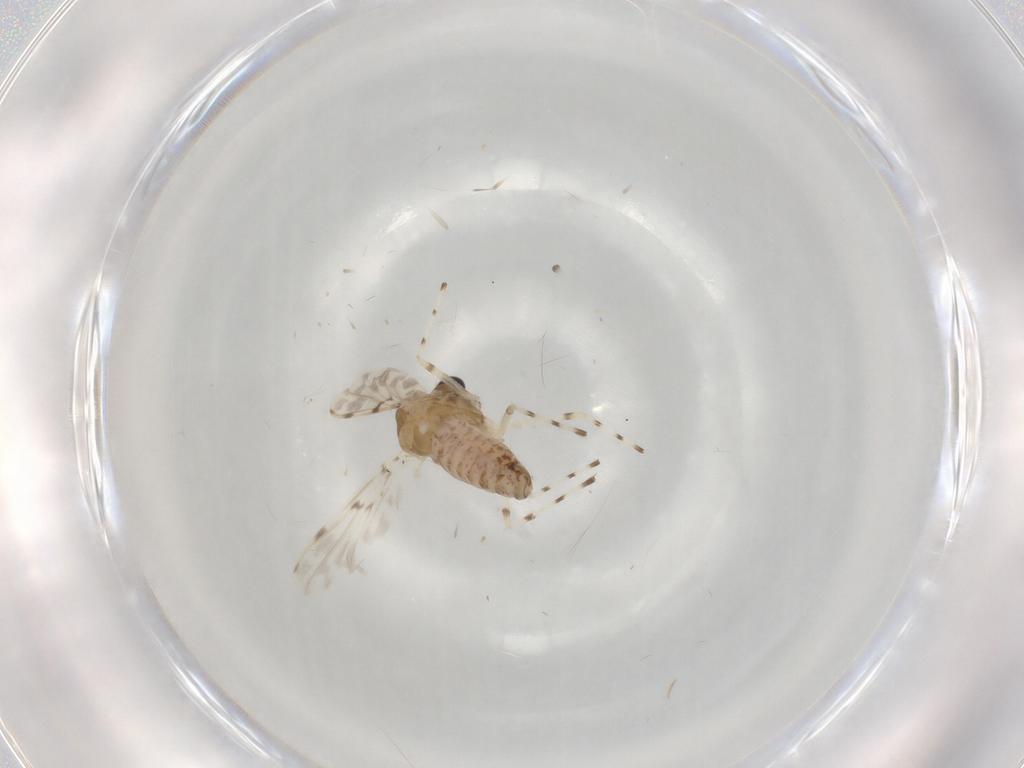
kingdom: Animalia
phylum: Arthropoda
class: Insecta
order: Diptera
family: Chironomidae
